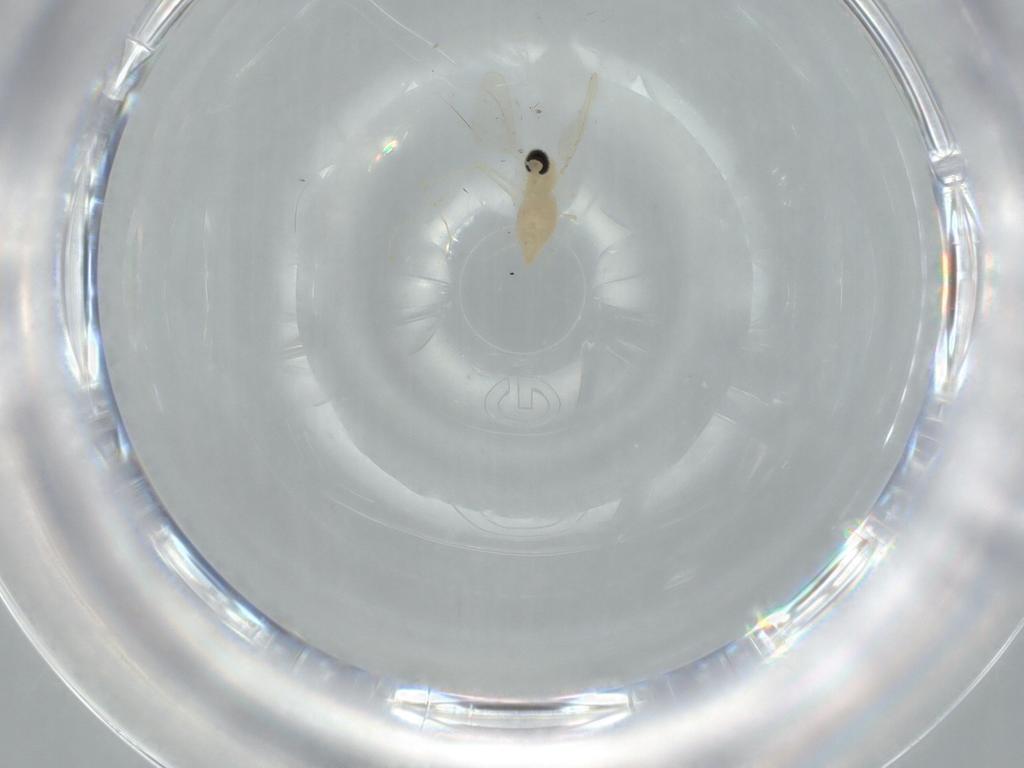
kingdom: Animalia
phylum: Arthropoda
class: Insecta
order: Diptera
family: Cecidomyiidae
